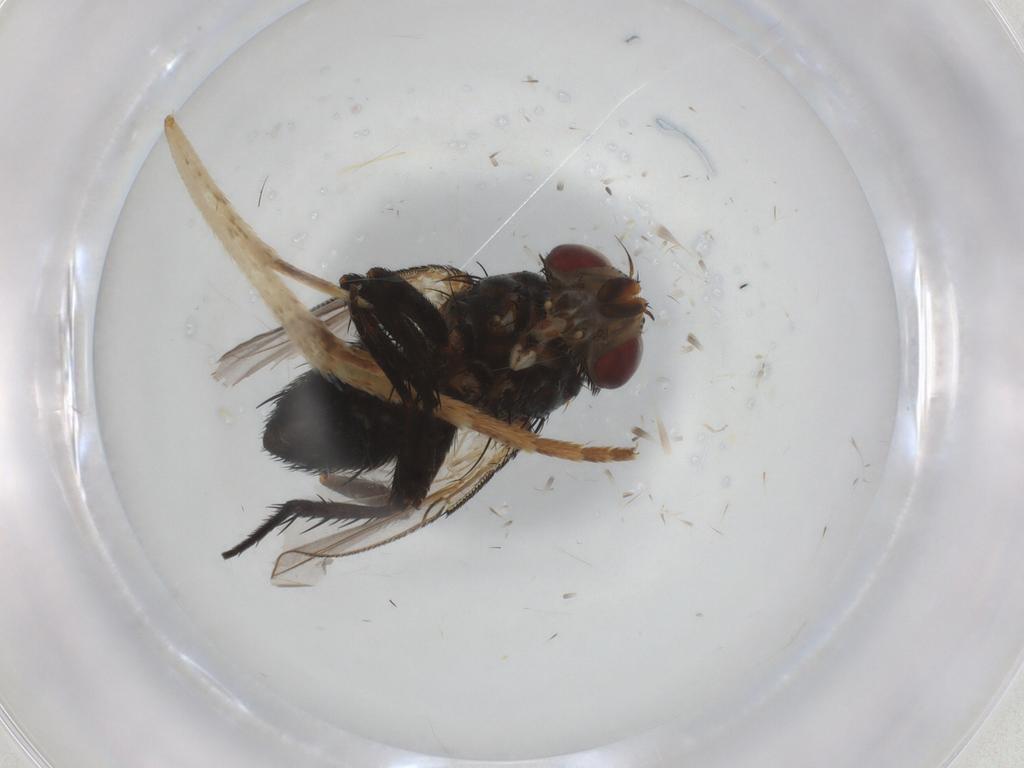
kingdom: Animalia
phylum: Arthropoda
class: Insecta
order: Diptera
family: Tachinidae
